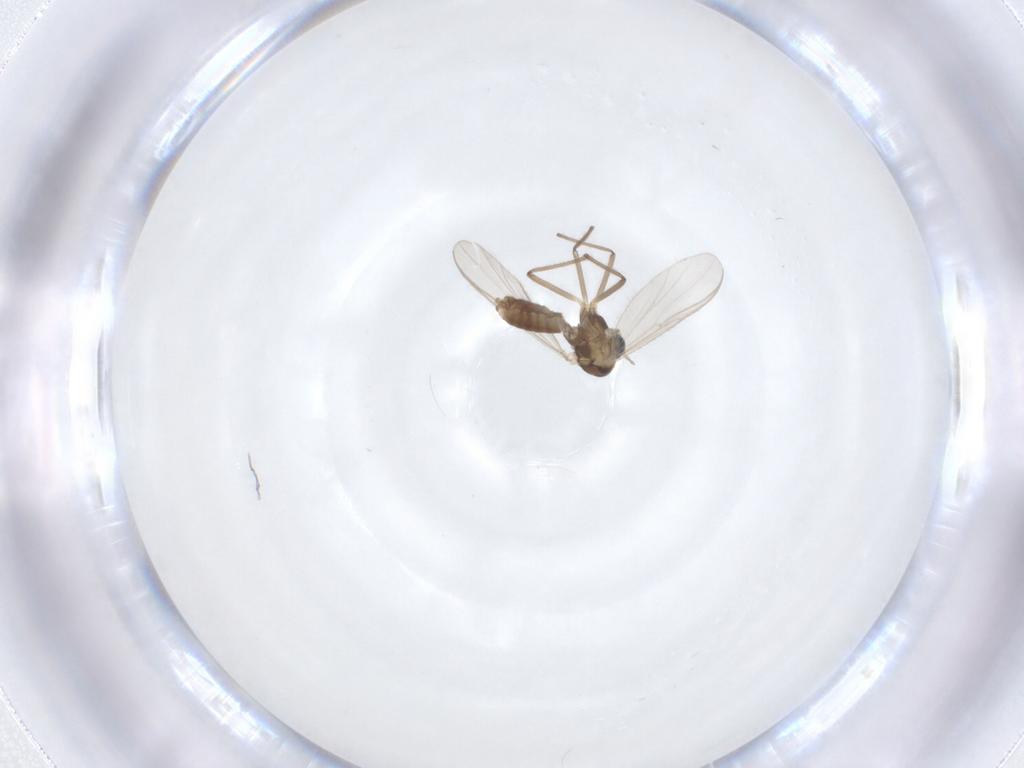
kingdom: Animalia
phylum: Arthropoda
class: Insecta
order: Diptera
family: Chironomidae
